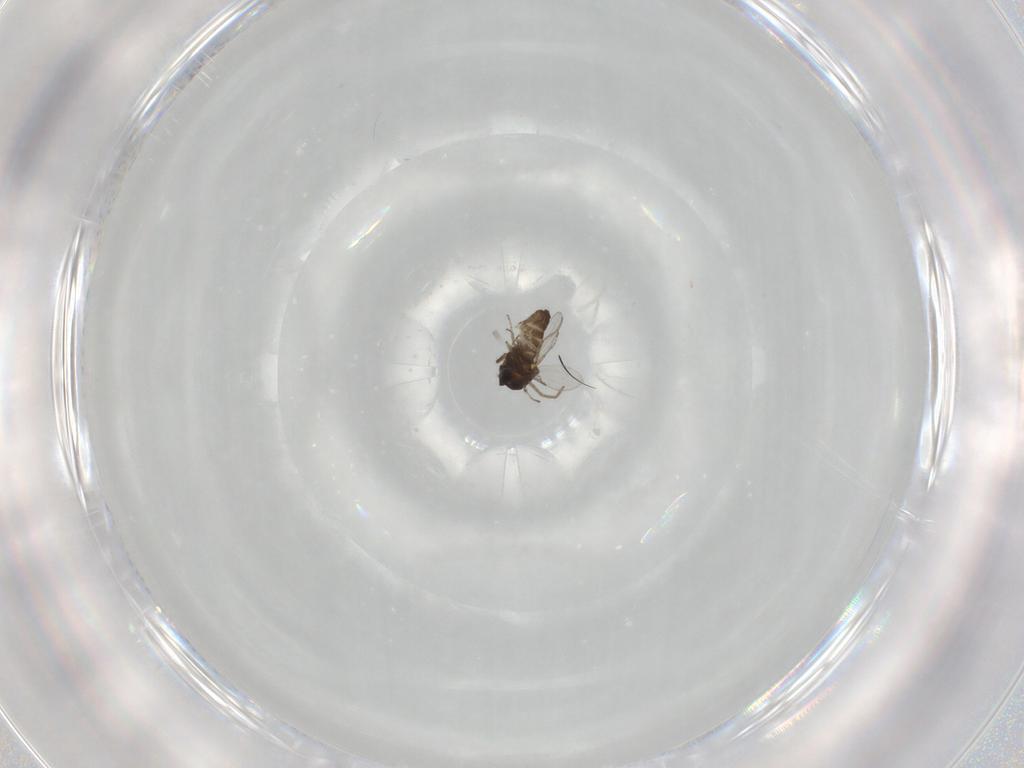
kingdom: Animalia
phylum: Arthropoda
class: Insecta
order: Diptera
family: Ceratopogonidae
